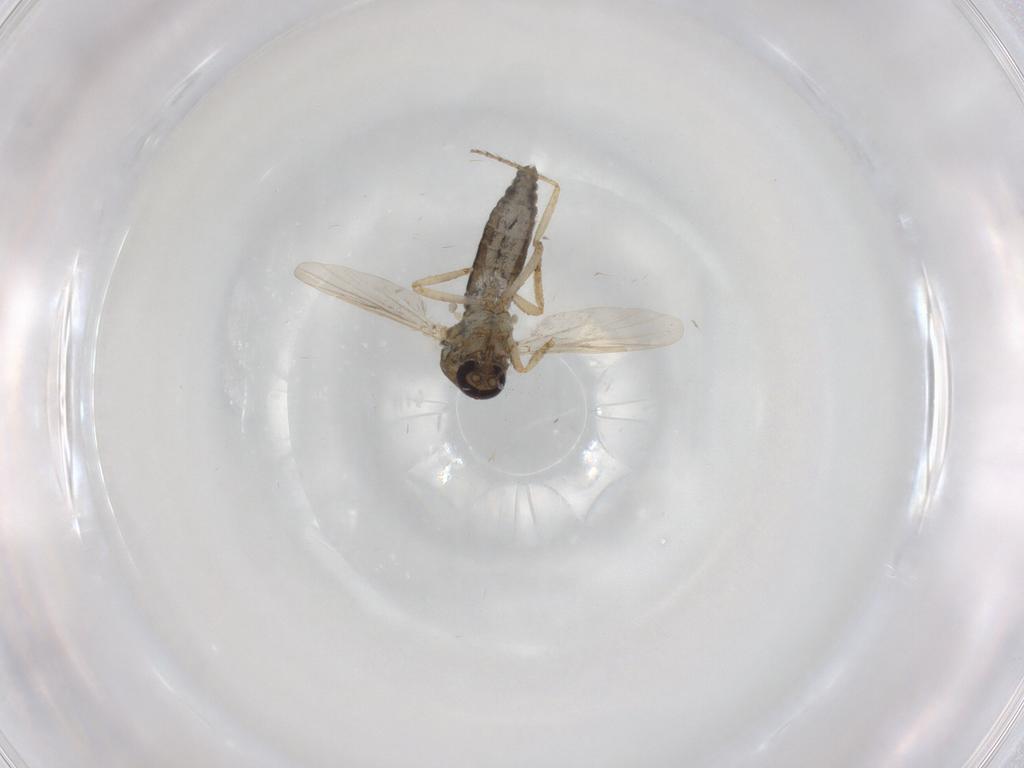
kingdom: Animalia
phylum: Arthropoda
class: Insecta
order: Diptera
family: Ceratopogonidae
